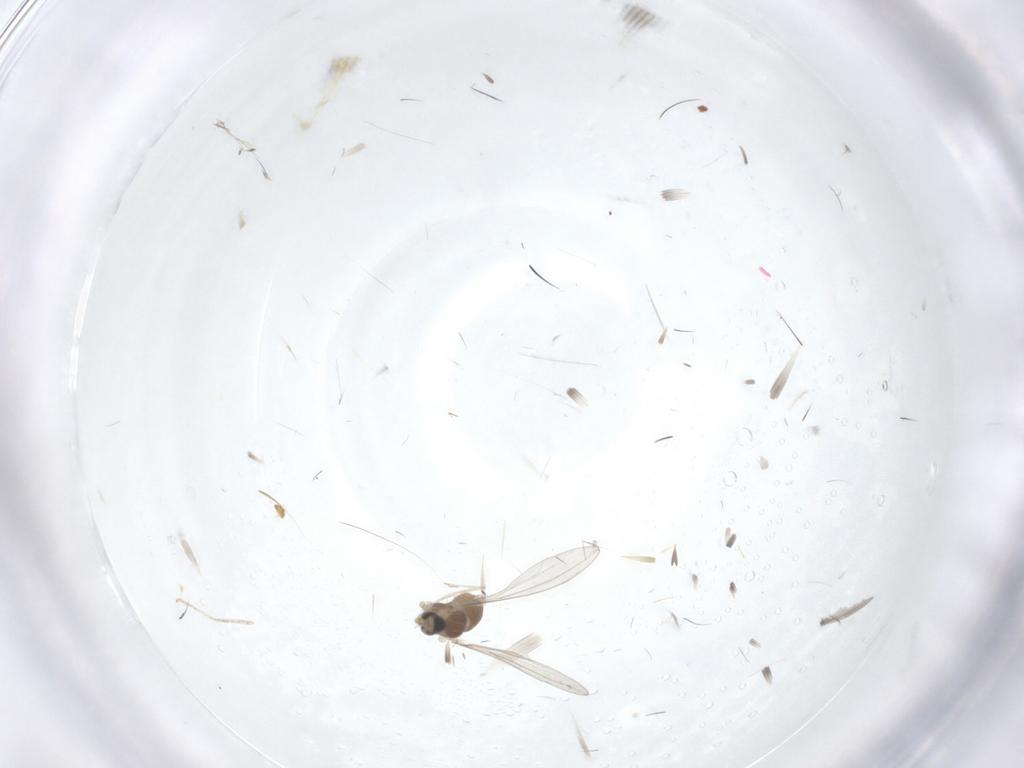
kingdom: Animalia
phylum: Arthropoda
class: Insecta
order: Diptera
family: Cecidomyiidae
